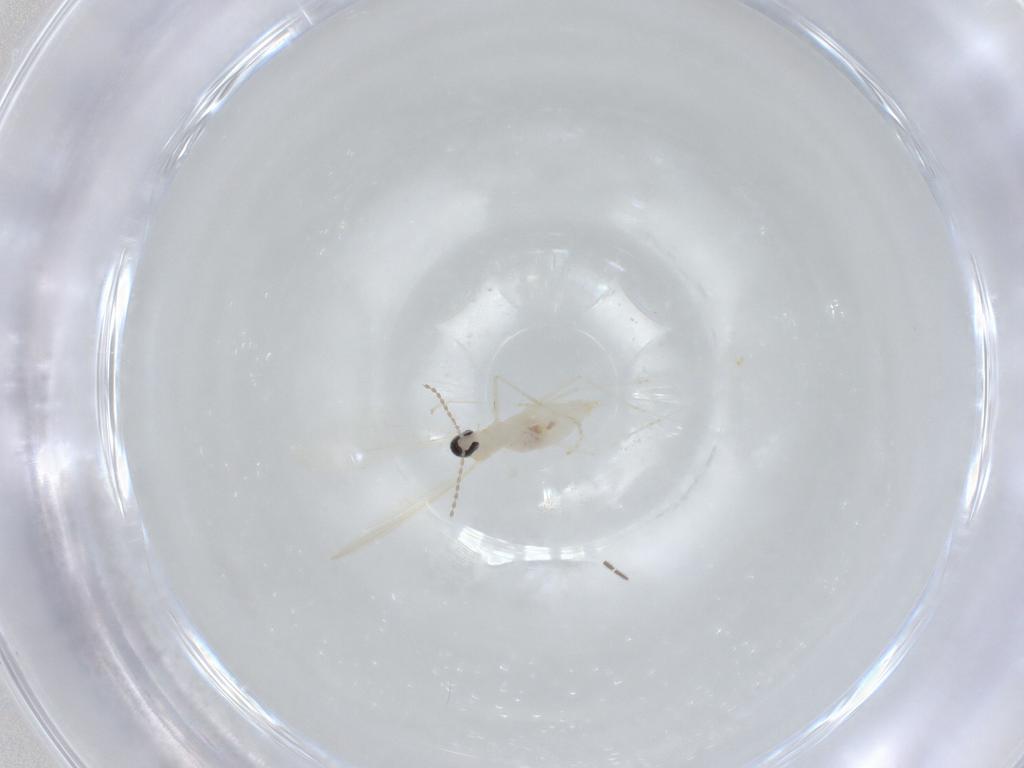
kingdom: Animalia
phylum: Arthropoda
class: Insecta
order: Diptera
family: Cecidomyiidae
